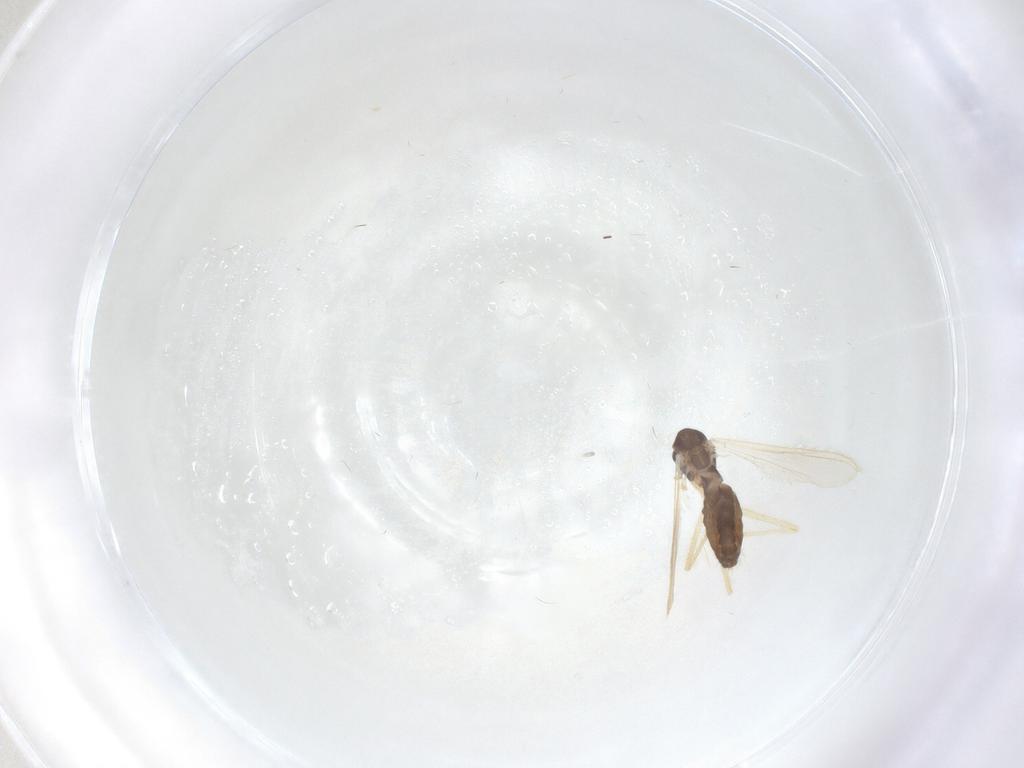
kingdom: Animalia
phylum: Arthropoda
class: Insecta
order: Diptera
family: Chironomidae
